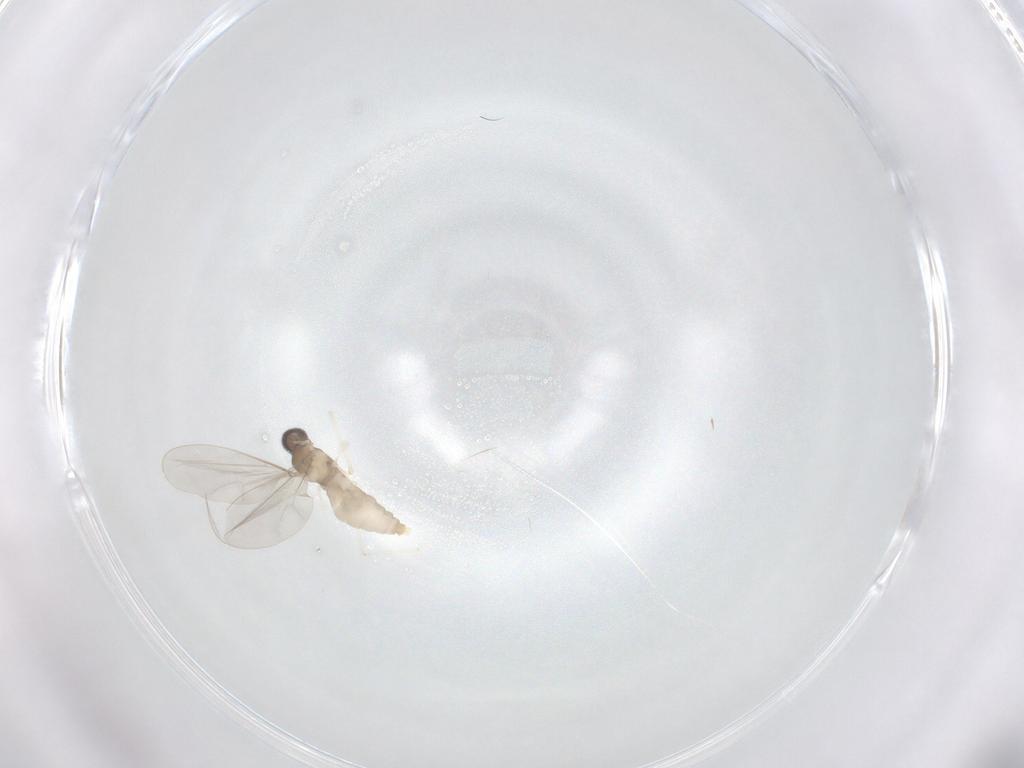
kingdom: Animalia
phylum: Arthropoda
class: Insecta
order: Diptera
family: Cecidomyiidae
